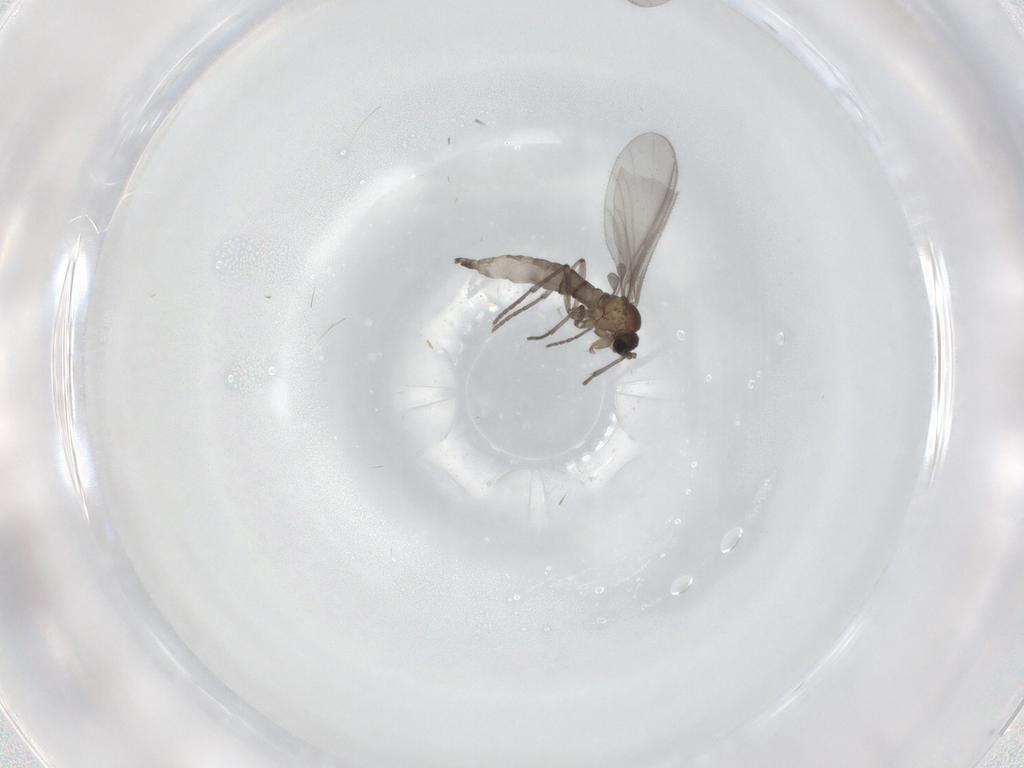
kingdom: Animalia
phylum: Arthropoda
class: Insecta
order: Diptera
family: Sciaridae
